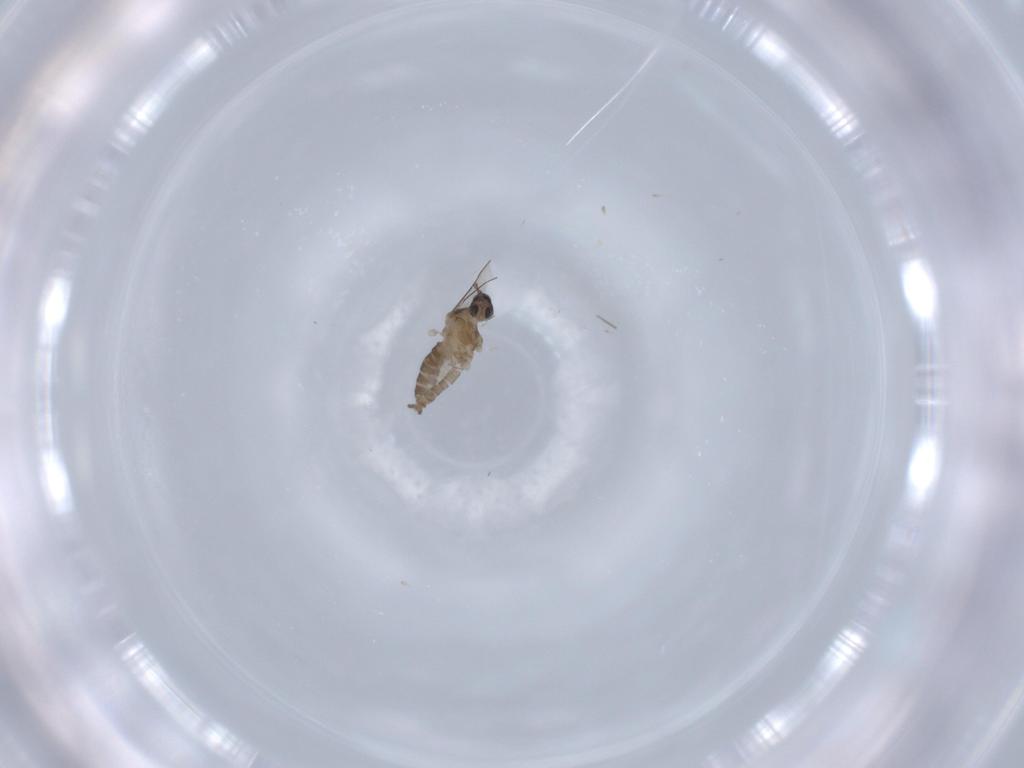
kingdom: Animalia
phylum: Arthropoda
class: Insecta
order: Diptera
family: Cecidomyiidae
